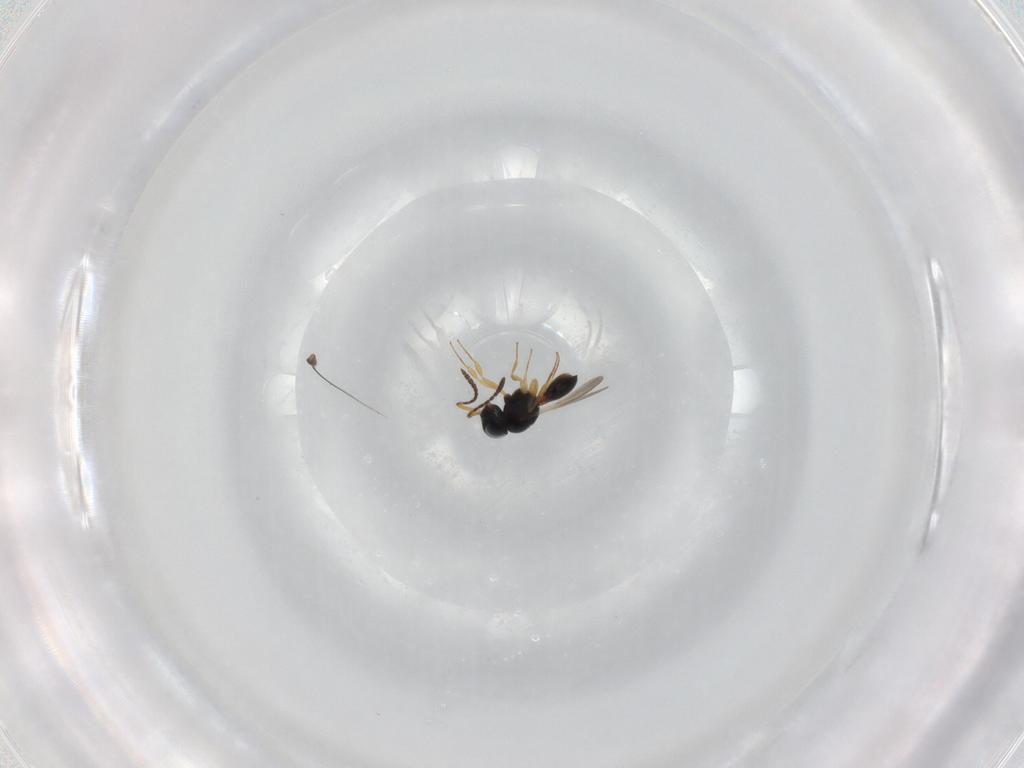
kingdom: Animalia
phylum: Arthropoda
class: Insecta
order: Hymenoptera
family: Scelionidae
